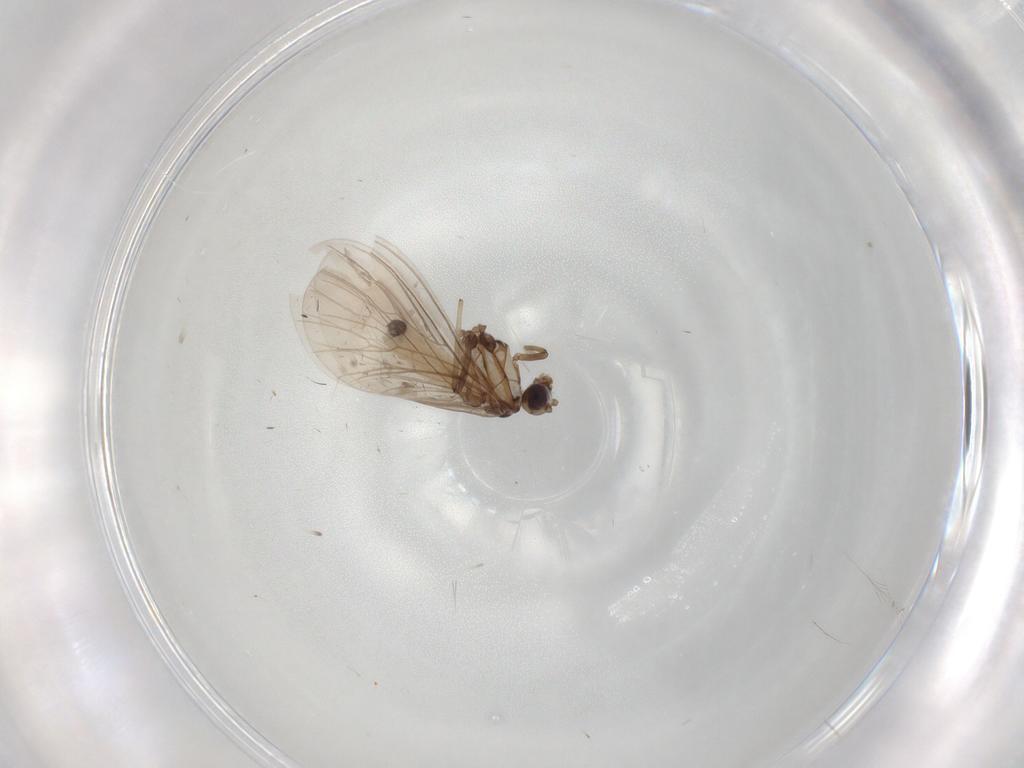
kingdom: Animalia
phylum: Arthropoda
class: Insecta
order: Neuroptera
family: Coniopterygidae
